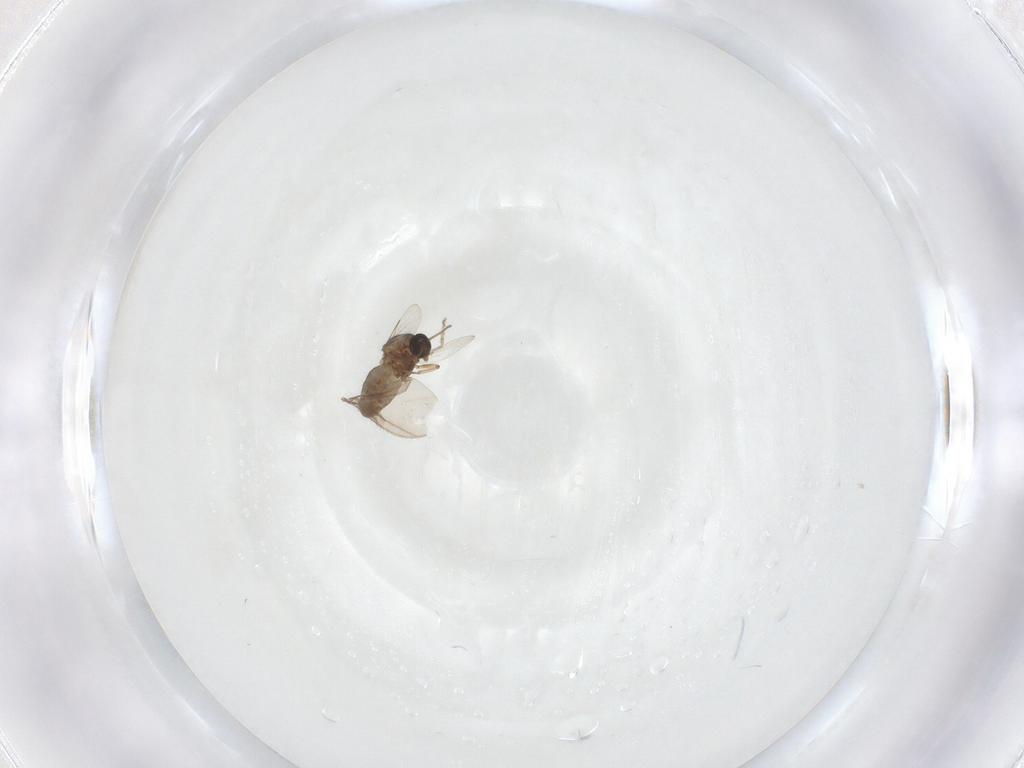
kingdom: Animalia
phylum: Arthropoda
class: Insecta
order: Diptera
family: Ceratopogonidae
